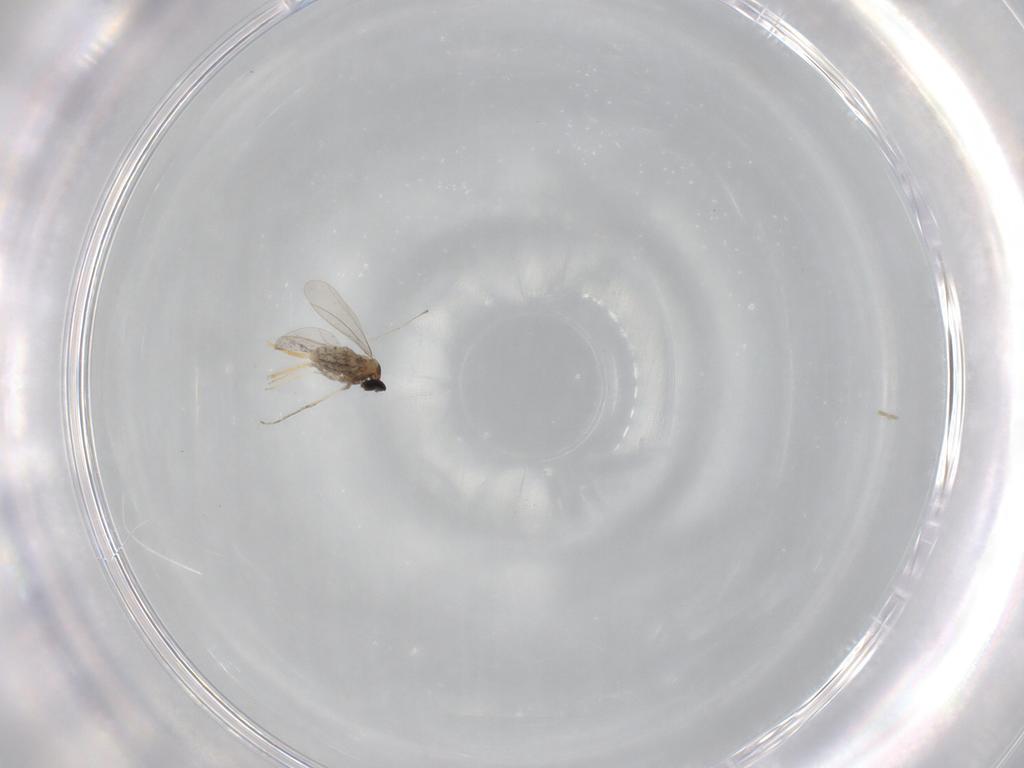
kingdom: Animalia
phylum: Arthropoda
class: Insecta
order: Diptera
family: Cecidomyiidae
